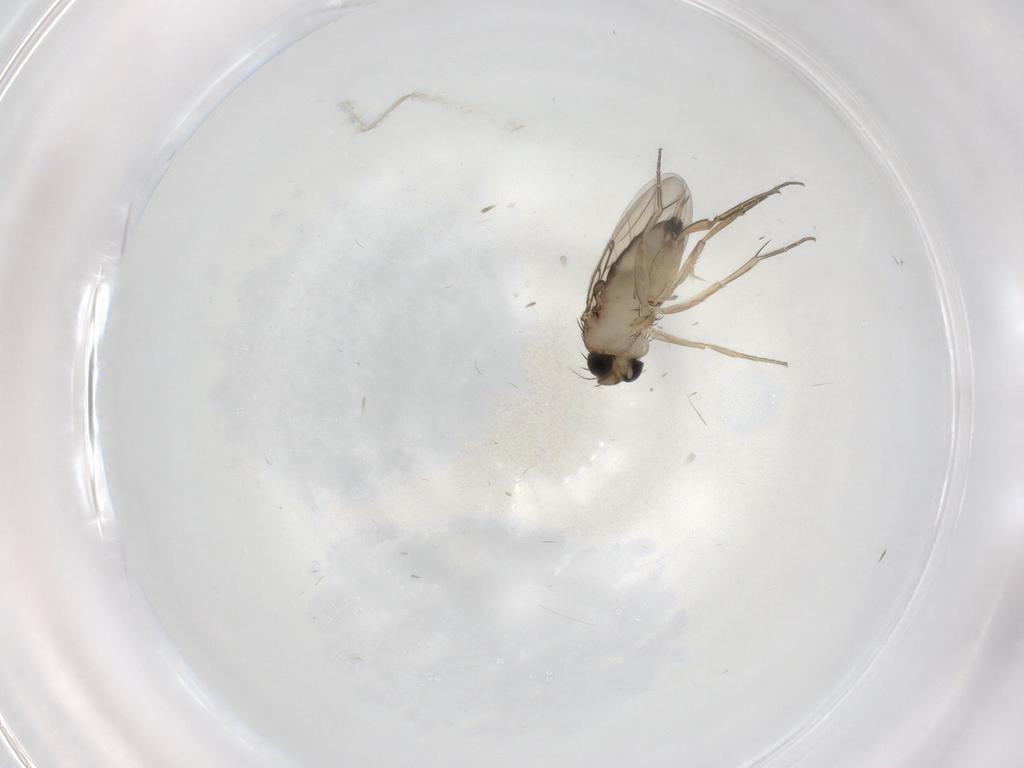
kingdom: Animalia
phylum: Arthropoda
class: Insecta
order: Diptera
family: Phoridae
